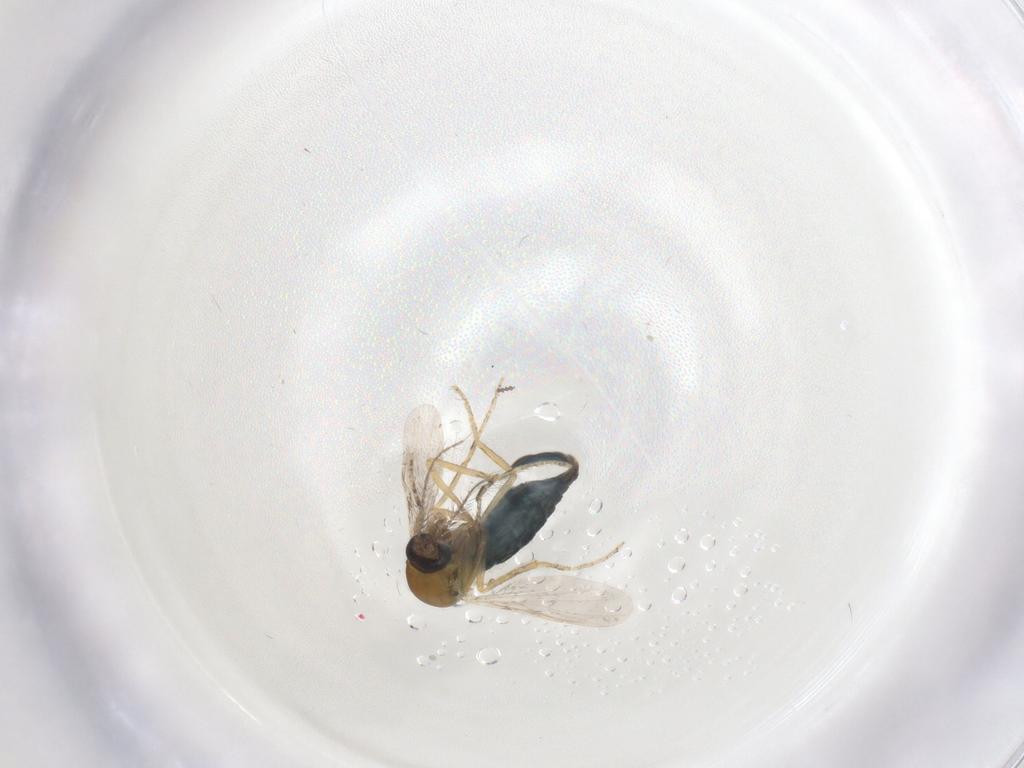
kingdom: Animalia
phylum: Arthropoda
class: Insecta
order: Diptera
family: Ceratopogonidae
